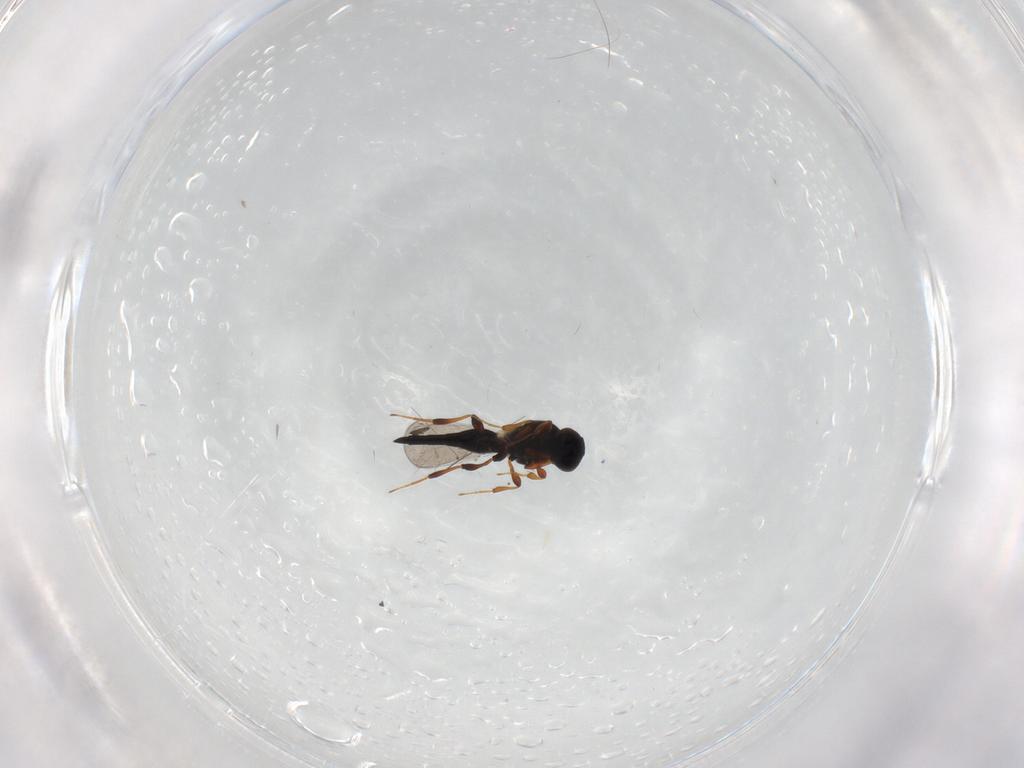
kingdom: Animalia
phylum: Arthropoda
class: Insecta
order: Hymenoptera
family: Platygastridae
